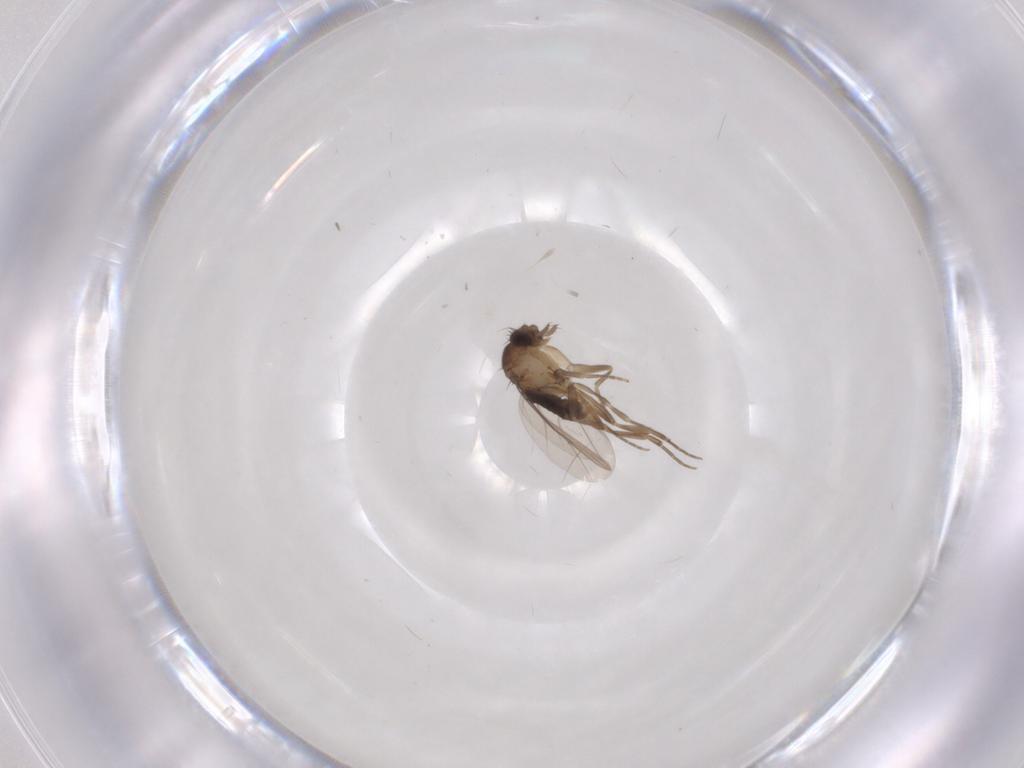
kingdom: Animalia
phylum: Arthropoda
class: Insecta
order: Diptera
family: Phoridae
